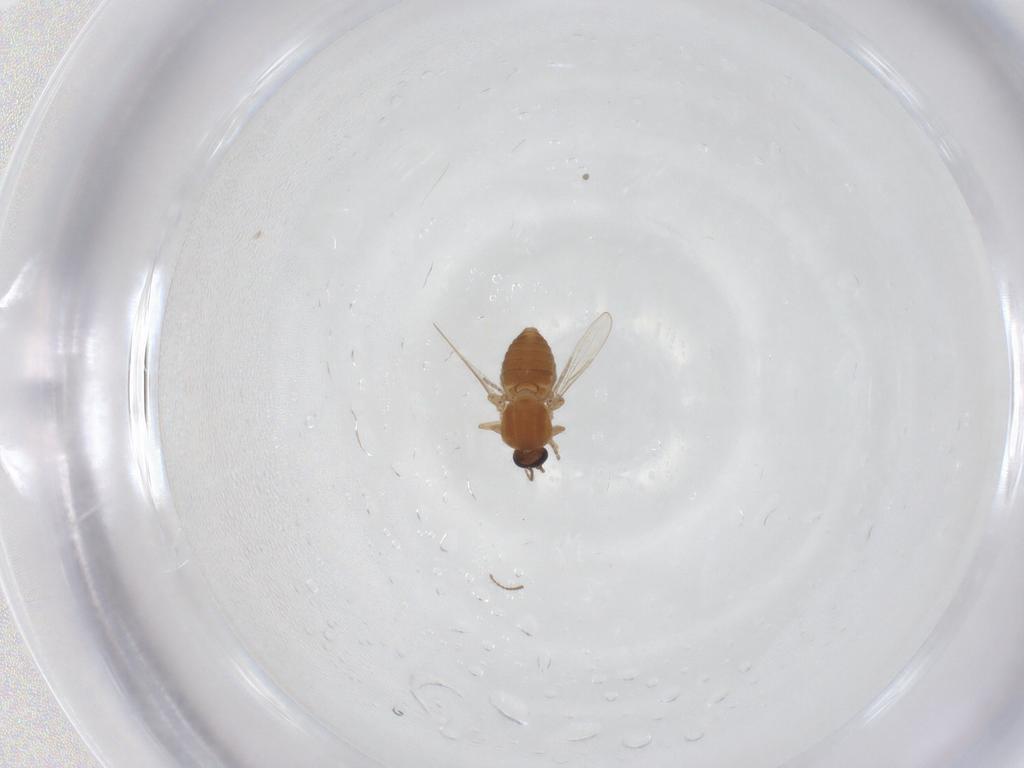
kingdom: Animalia
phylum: Arthropoda
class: Insecta
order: Diptera
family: Ceratopogonidae
